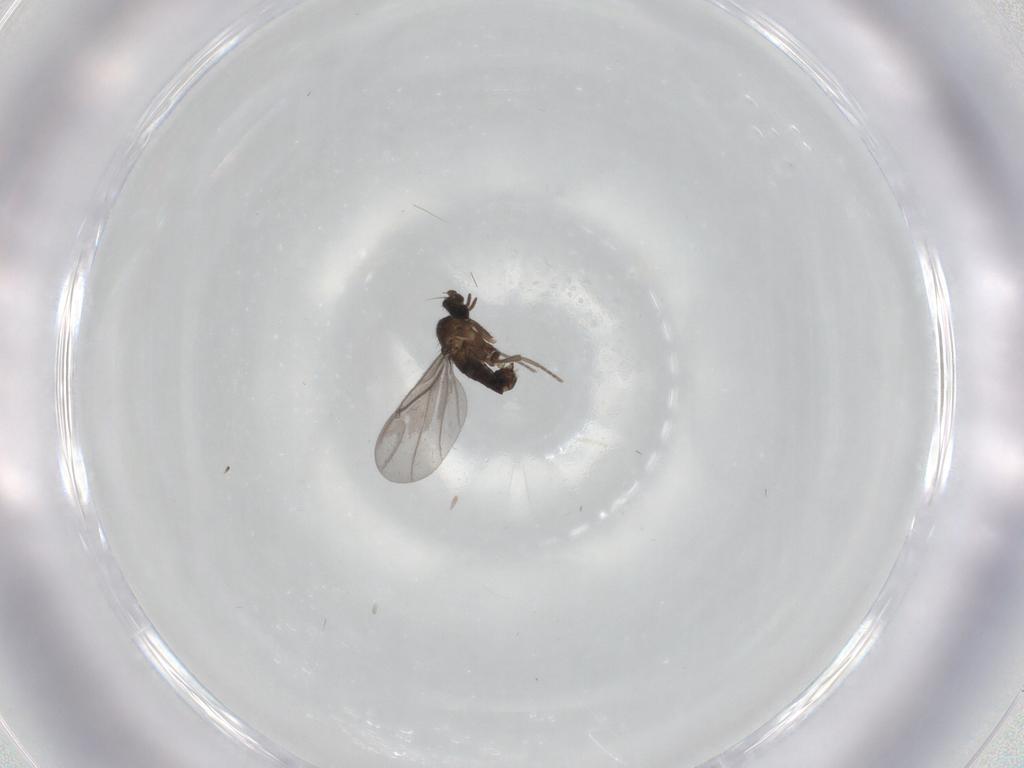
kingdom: Animalia
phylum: Arthropoda
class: Insecta
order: Diptera
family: Phoridae
